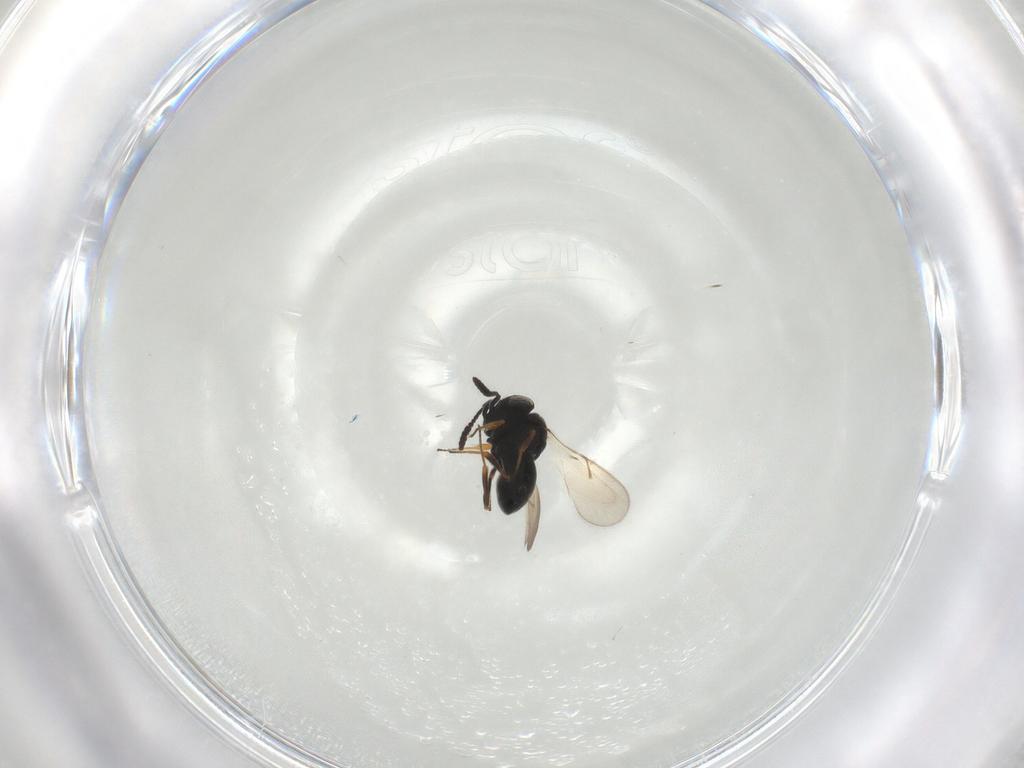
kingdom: Animalia
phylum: Arthropoda
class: Insecta
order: Hymenoptera
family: Scelionidae
